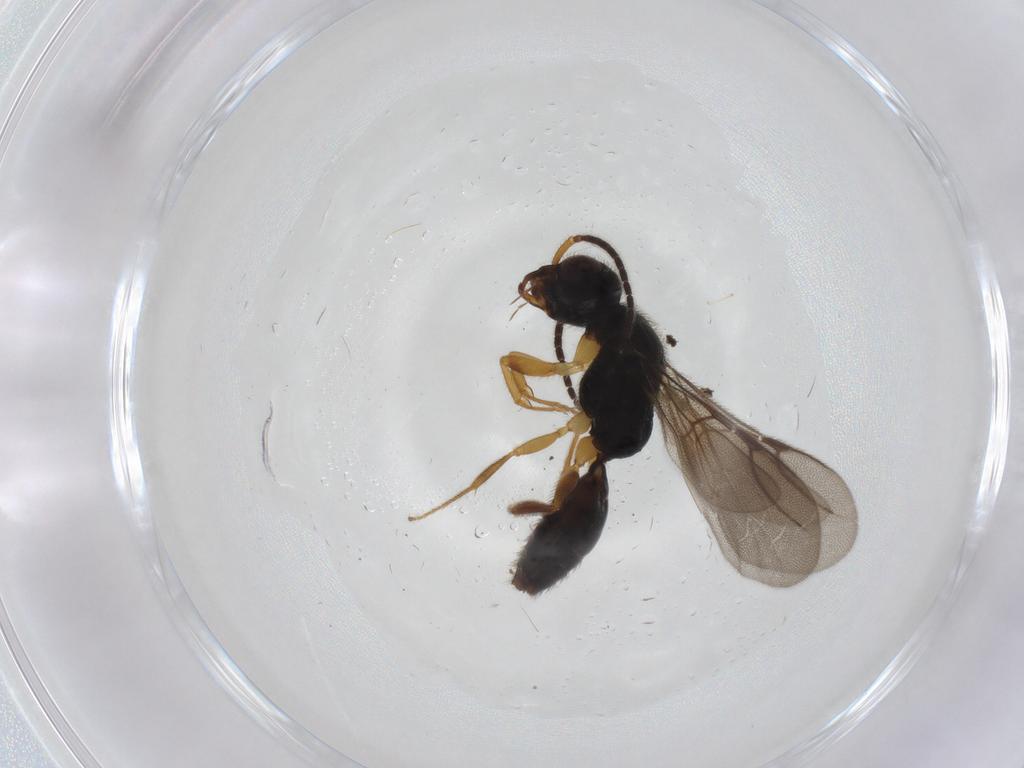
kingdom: Animalia
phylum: Arthropoda
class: Insecta
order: Hymenoptera
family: Bethylidae
